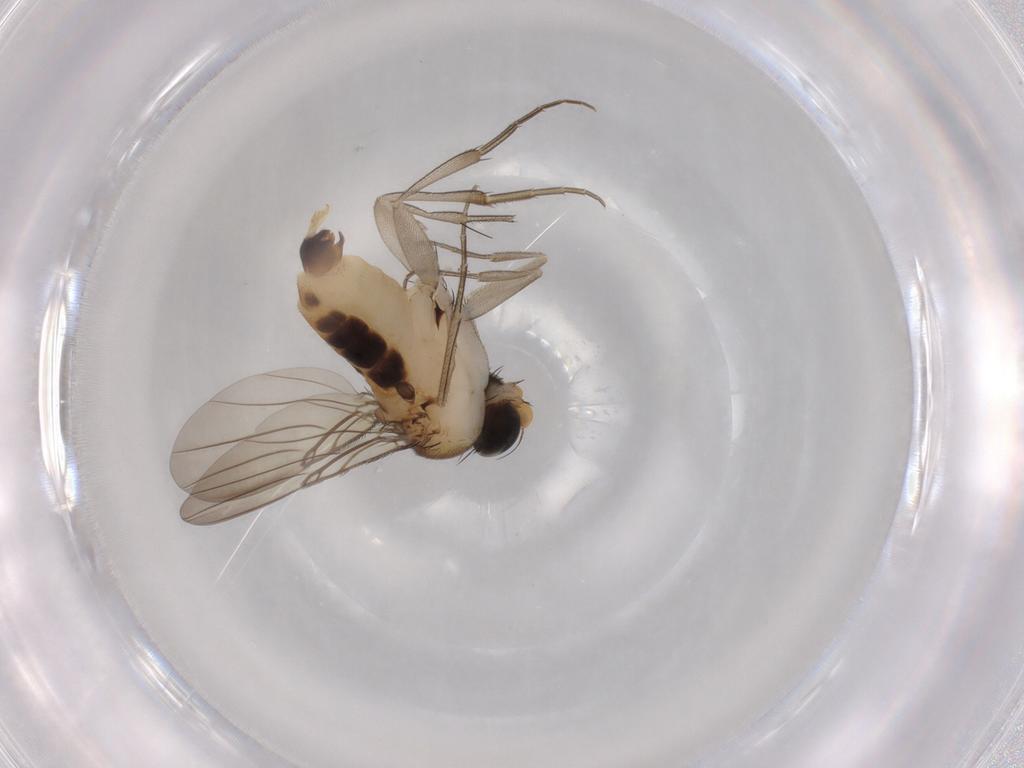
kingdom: Animalia
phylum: Arthropoda
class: Insecta
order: Diptera
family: Phoridae
